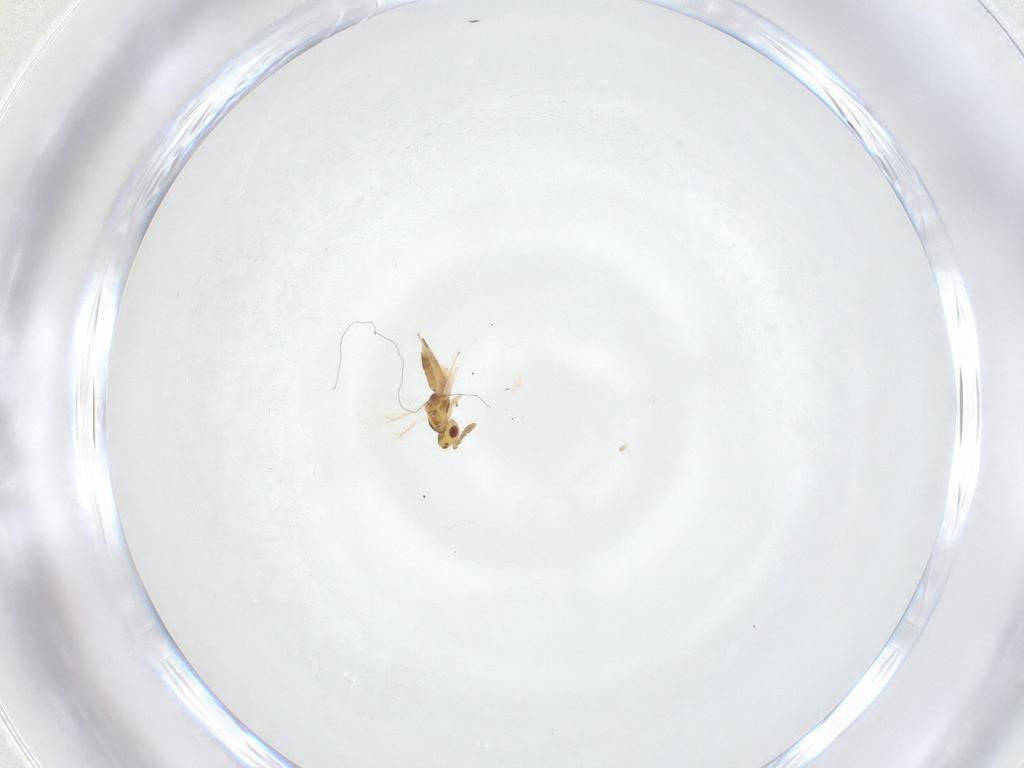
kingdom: Animalia
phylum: Arthropoda
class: Insecta
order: Hymenoptera
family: Eulophidae
